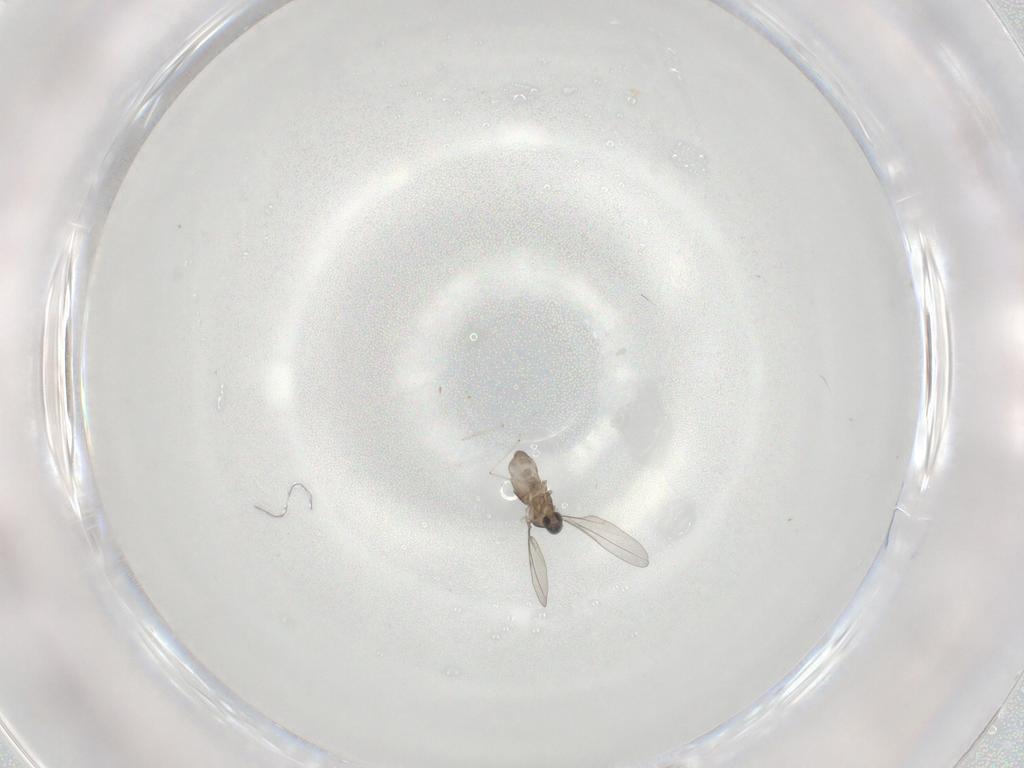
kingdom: Animalia
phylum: Arthropoda
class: Insecta
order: Diptera
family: Cecidomyiidae
